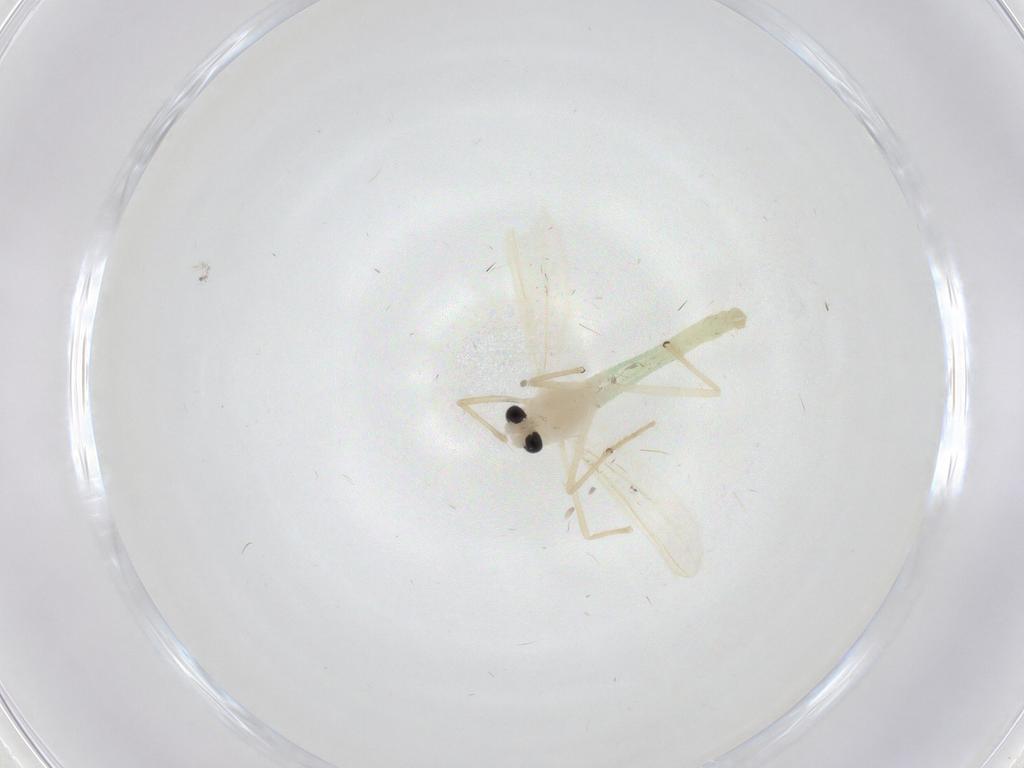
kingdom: Animalia
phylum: Arthropoda
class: Insecta
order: Diptera
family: Chironomidae
